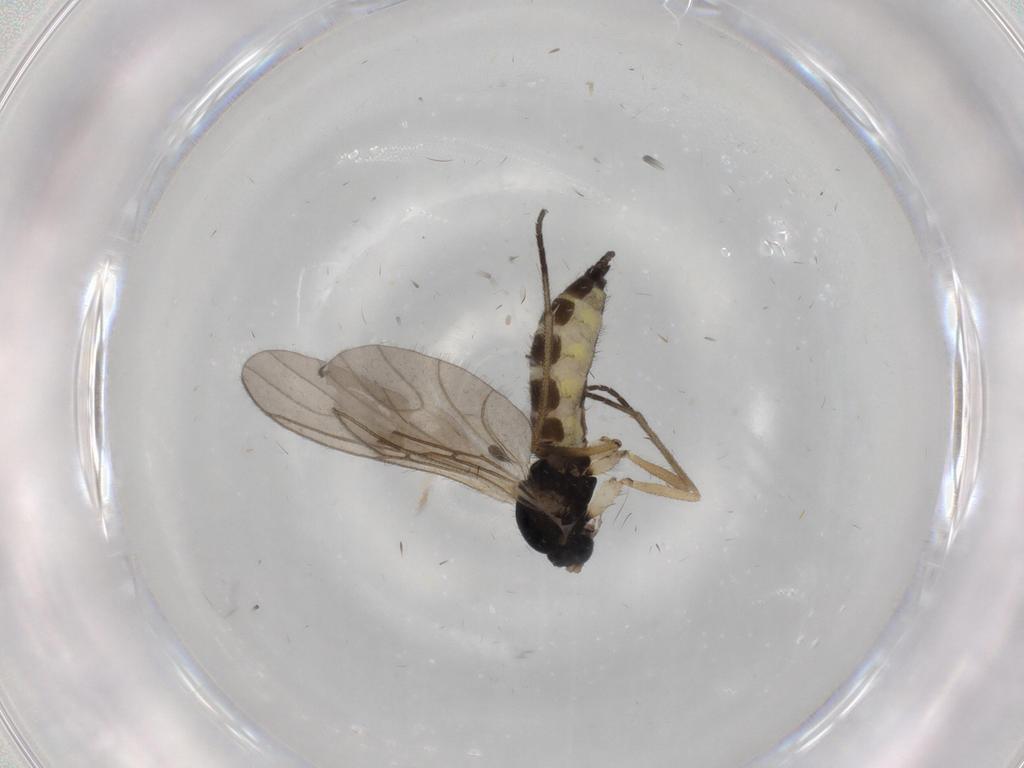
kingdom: Animalia
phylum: Arthropoda
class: Insecta
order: Diptera
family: Sciaridae
